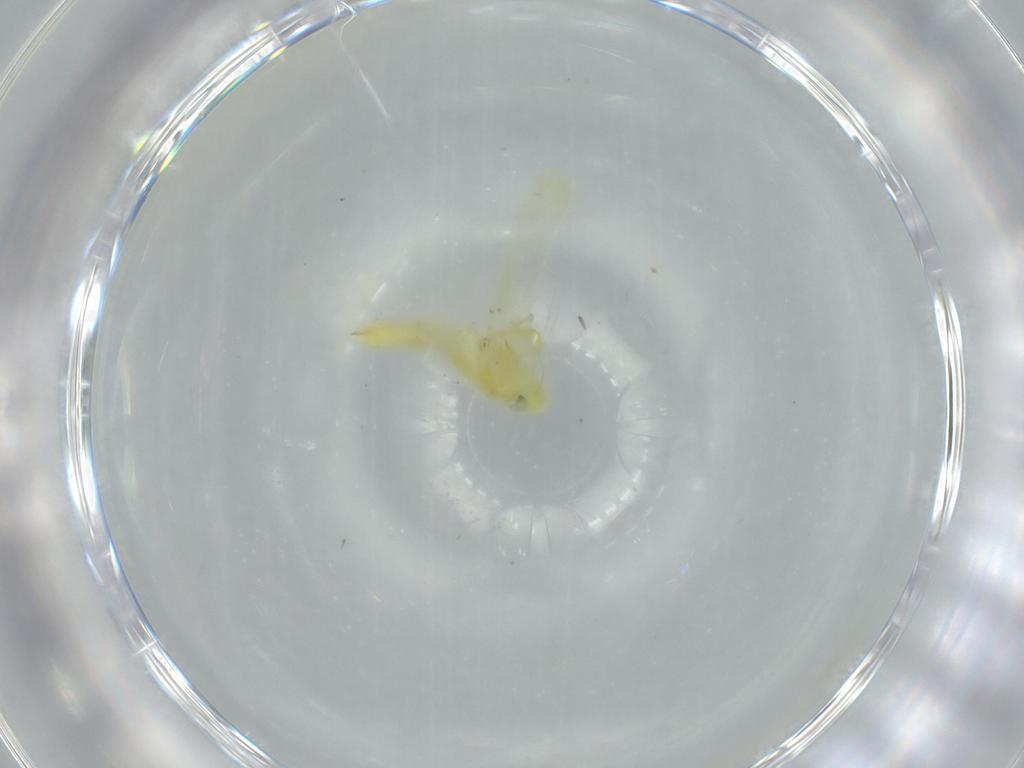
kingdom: Animalia
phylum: Arthropoda
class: Insecta
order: Hemiptera
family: Cicadellidae
